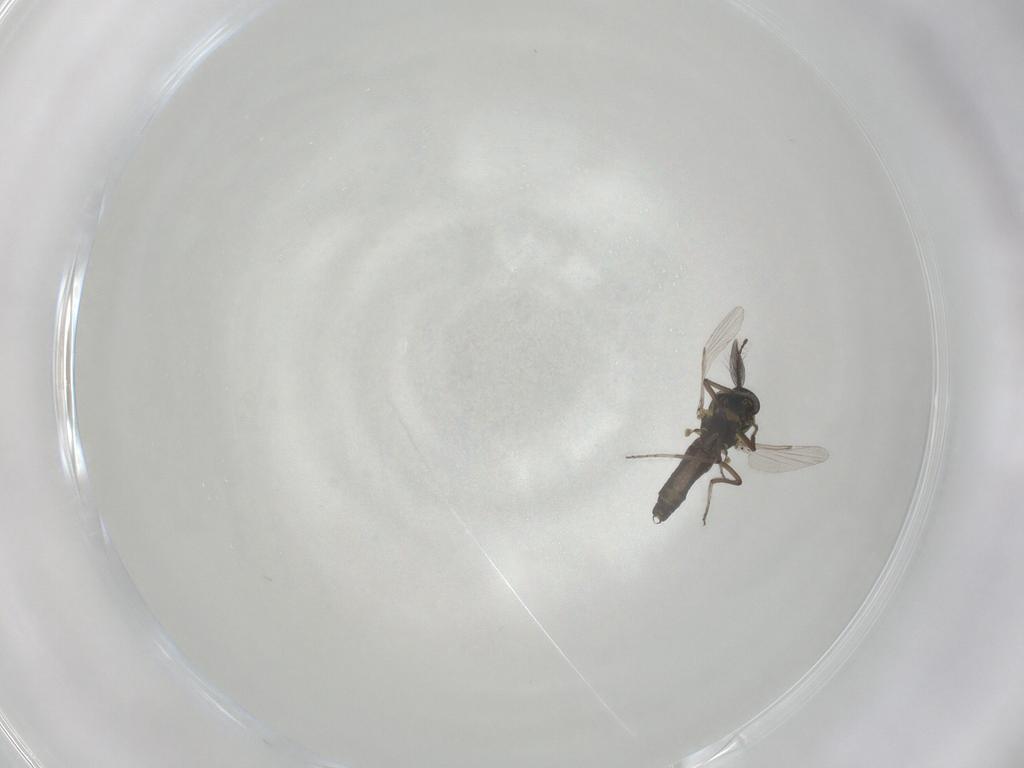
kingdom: Animalia
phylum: Arthropoda
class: Insecta
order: Diptera
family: Ceratopogonidae
